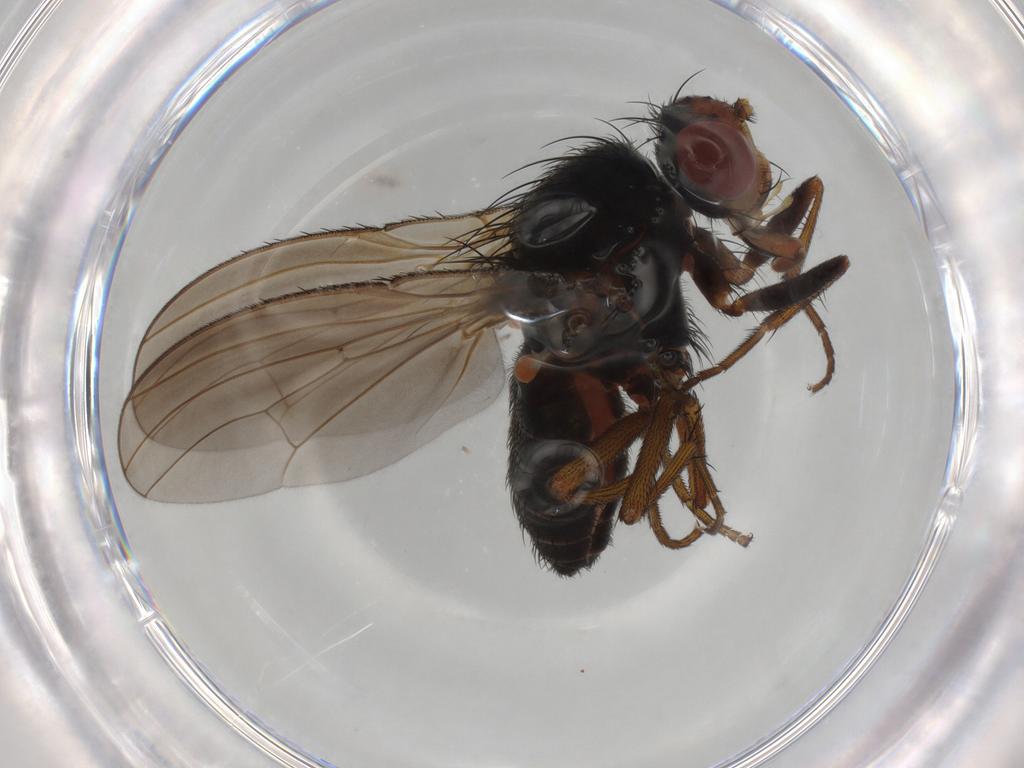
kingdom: Animalia
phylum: Arthropoda
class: Insecta
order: Diptera
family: Heleomyzidae
